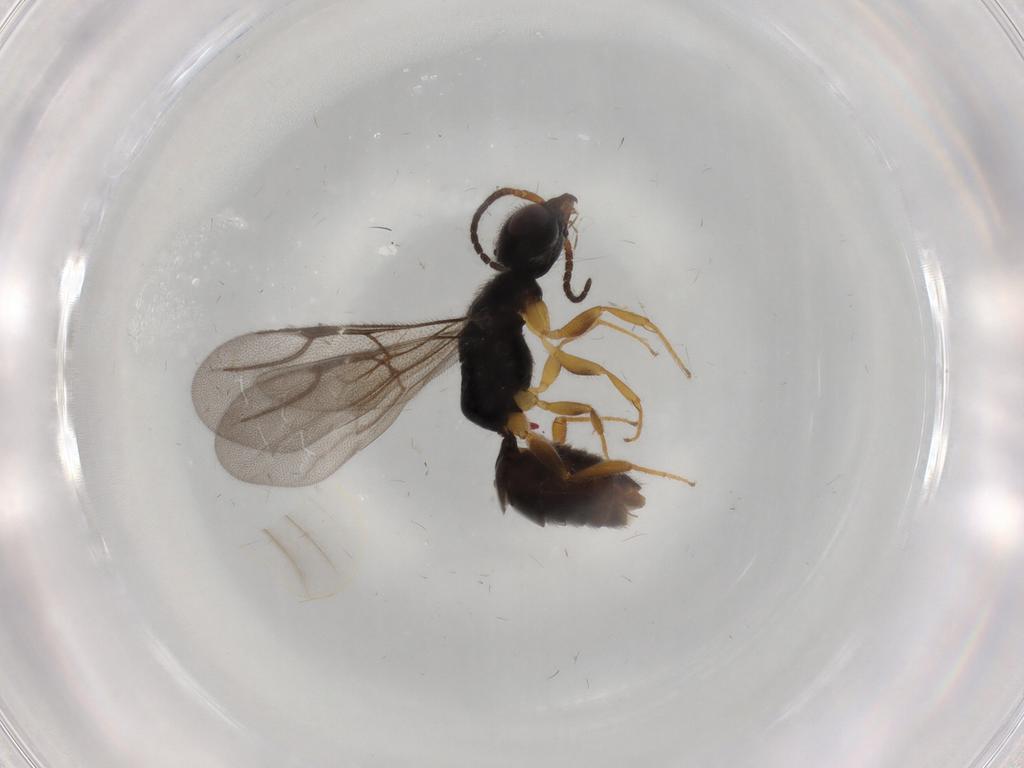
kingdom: Animalia
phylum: Arthropoda
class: Insecta
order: Hymenoptera
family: Bethylidae
